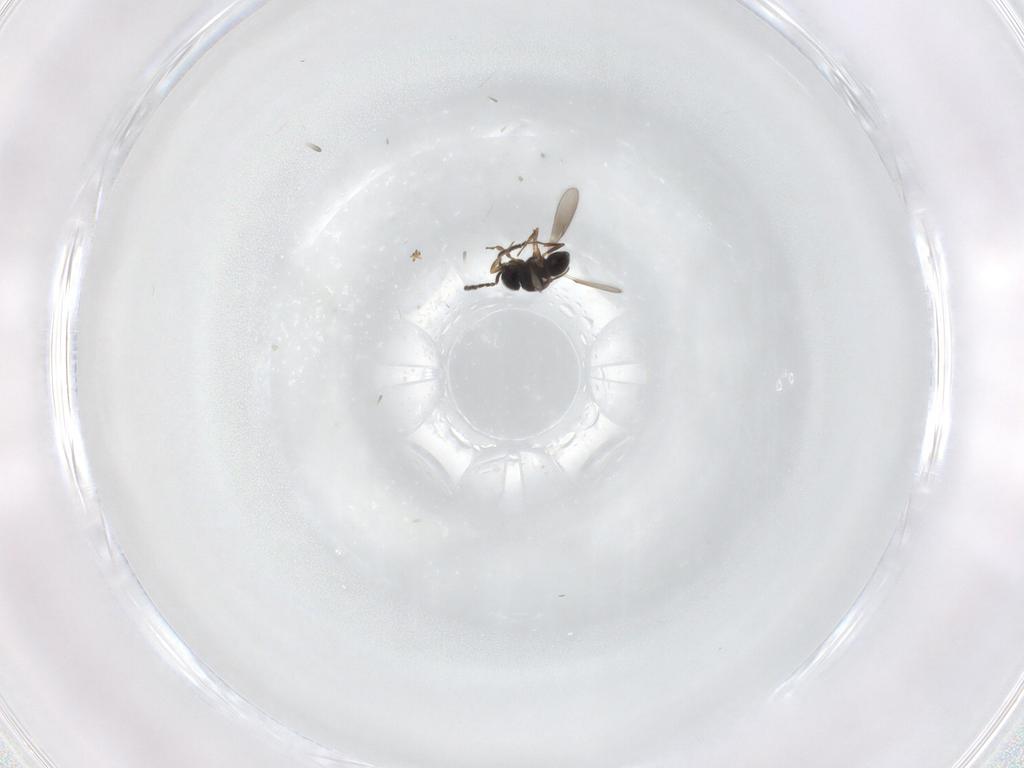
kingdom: Animalia
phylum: Arthropoda
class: Insecta
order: Hymenoptera
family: Scelionidae
